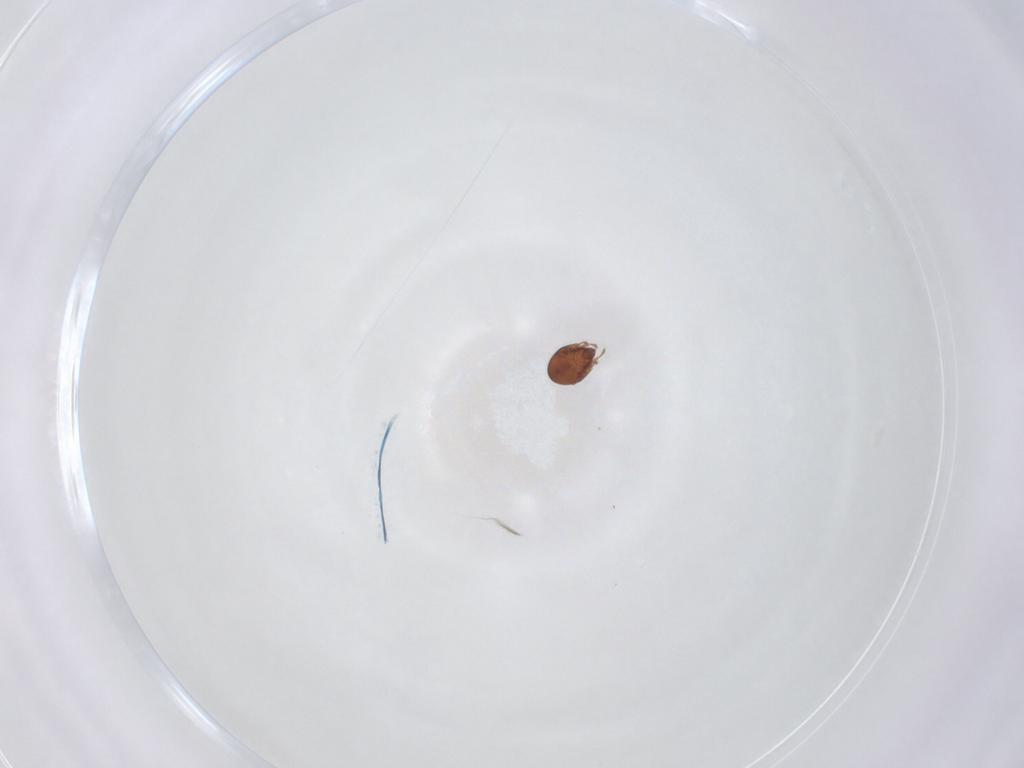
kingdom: Animalia
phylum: Arthropoda
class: Arachnida
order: Sarcoptiformes
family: Scheloribatidae
